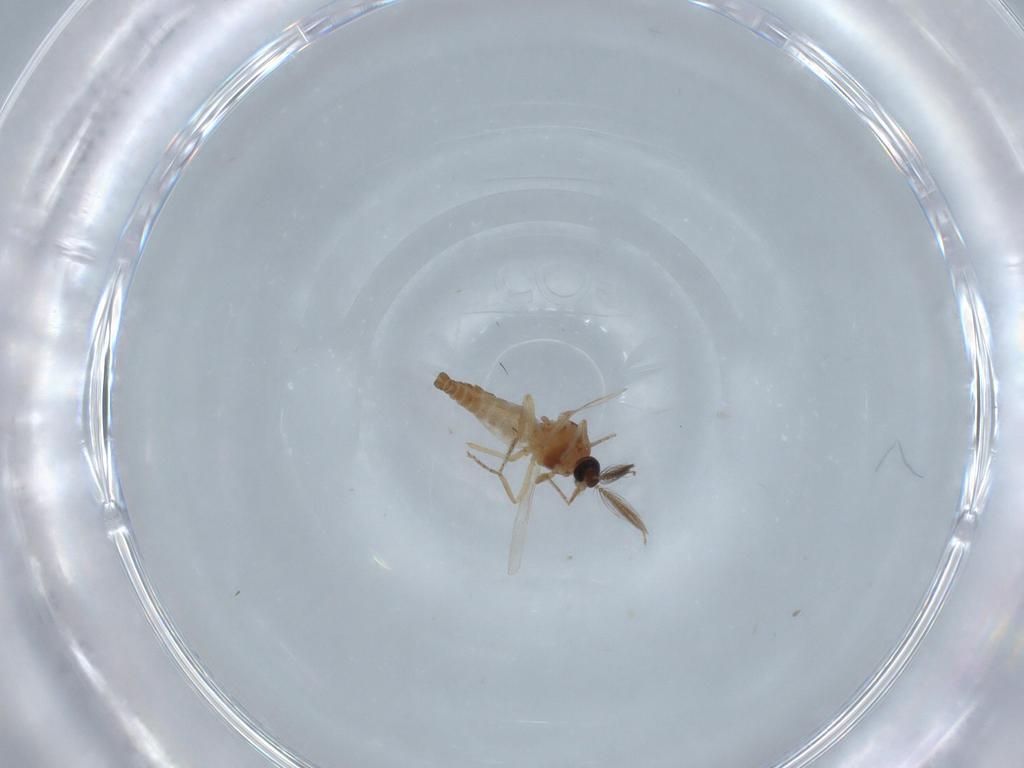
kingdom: Animalia
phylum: Arthropoda
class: Insecta
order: Diptera
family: Ceratopogonidae
